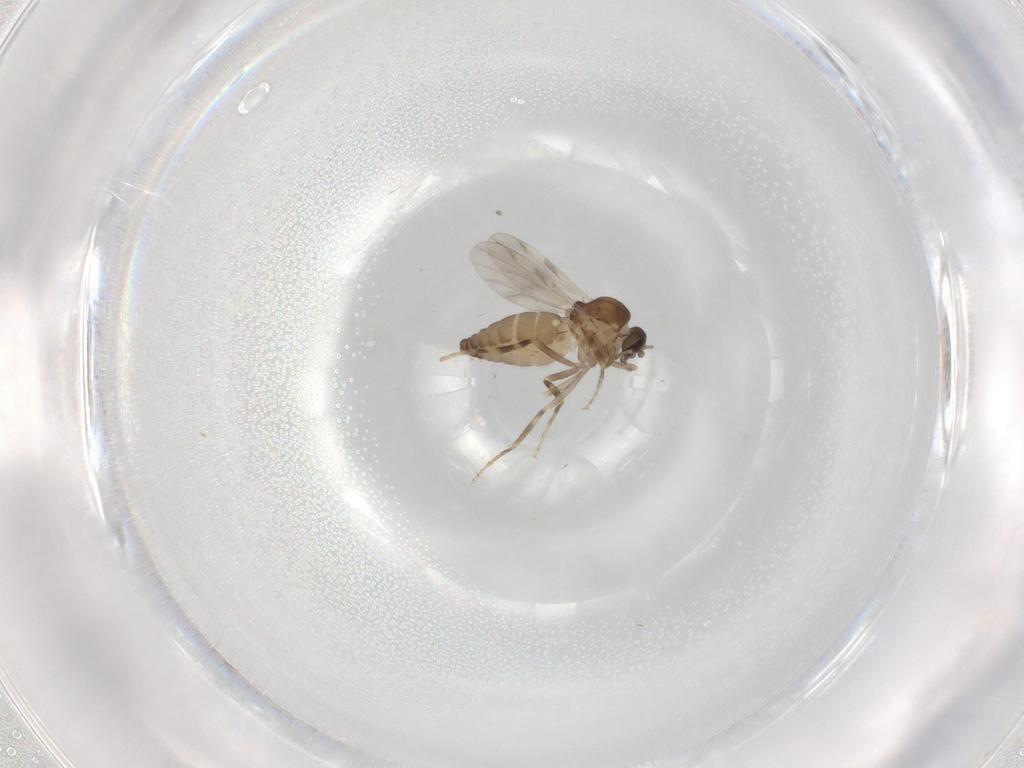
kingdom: Animalia
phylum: Arthropoda
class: Insecta
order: Diptera
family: Ceratopogonidae
